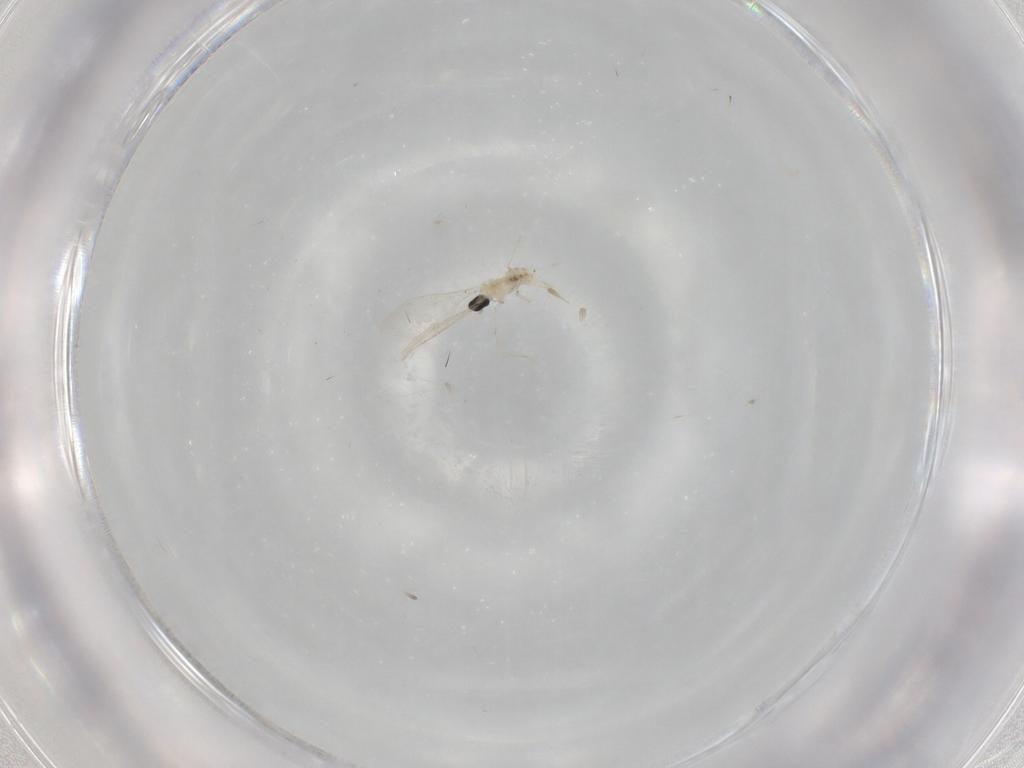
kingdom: Animalia
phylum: Arthropoda
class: Insecta
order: Diptera
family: Cecidomyiidae
